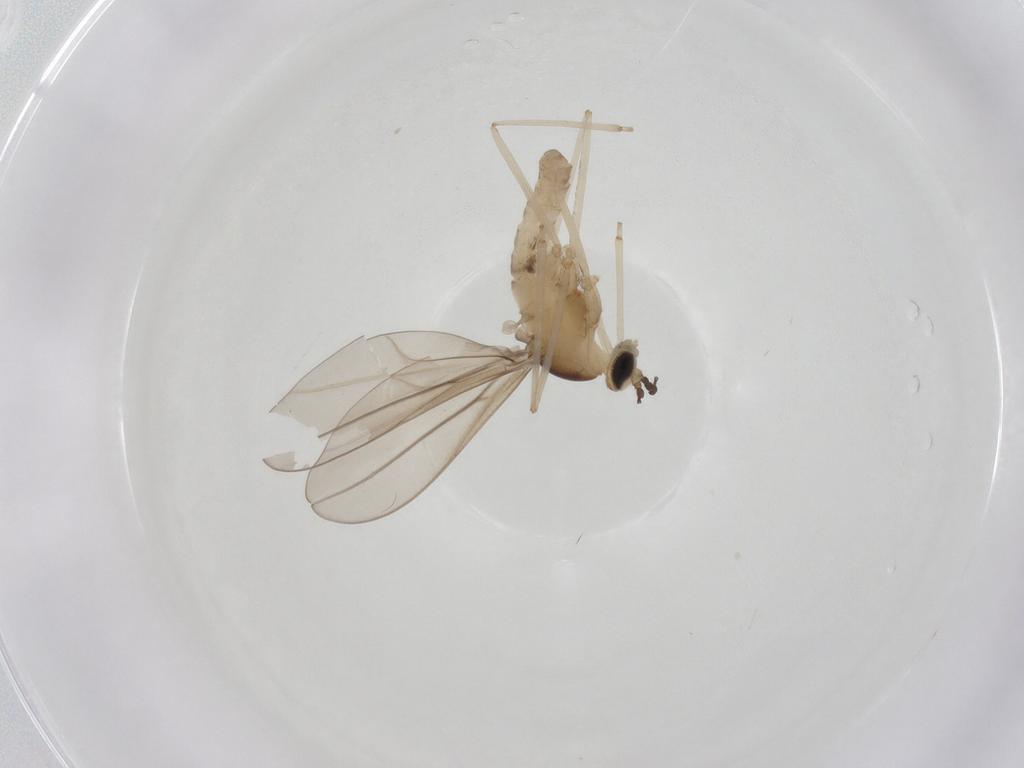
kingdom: Animalia
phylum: Arthropoda
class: Insecta
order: Diptera
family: Cecidomyiidae
